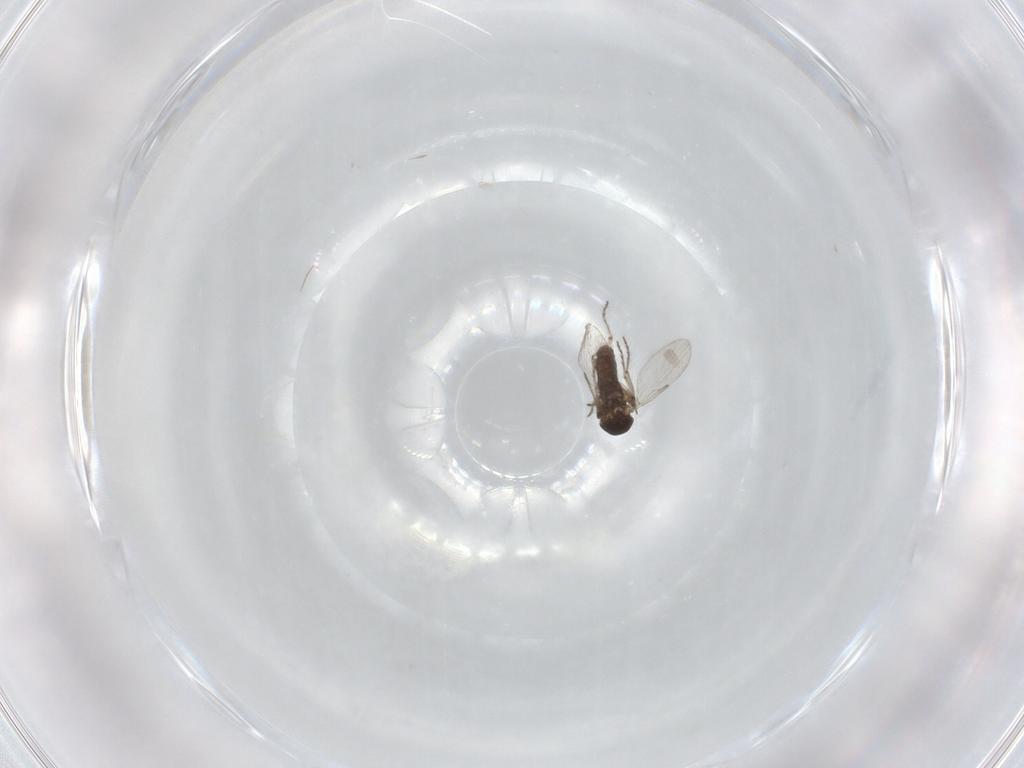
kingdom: Animalia
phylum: Arthropoda
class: Insecta
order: Diptera
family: Ceratopogonidae
